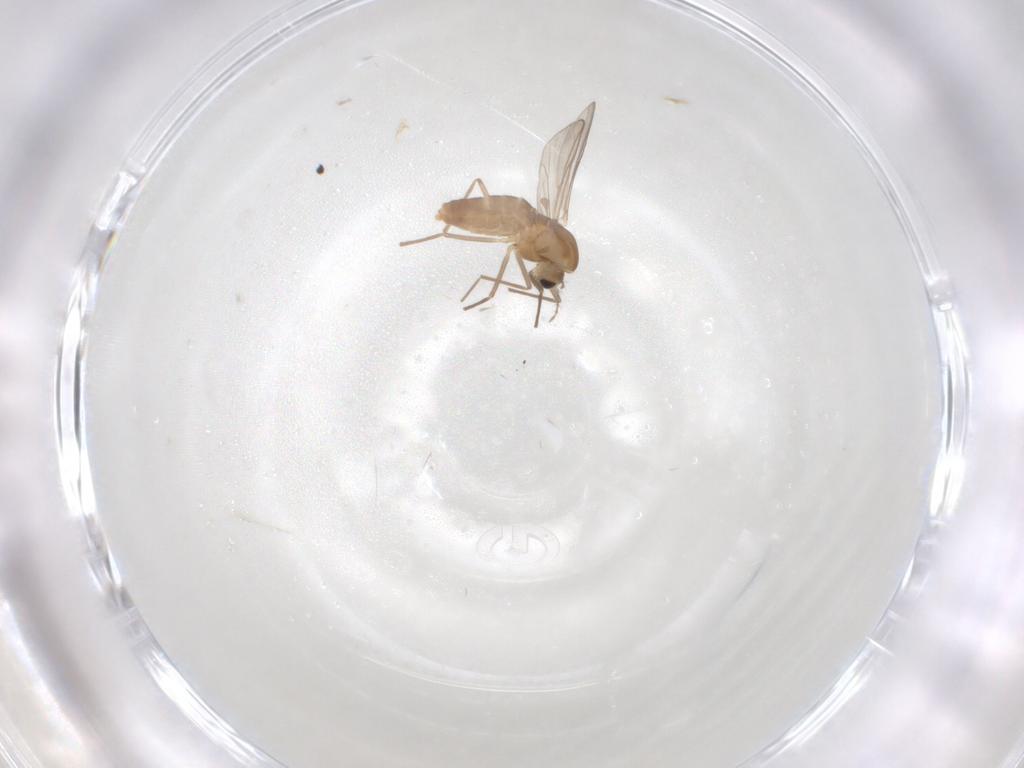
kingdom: Animalia
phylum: Arthropoda
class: Insecta
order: Diptera
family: Chironomidae
